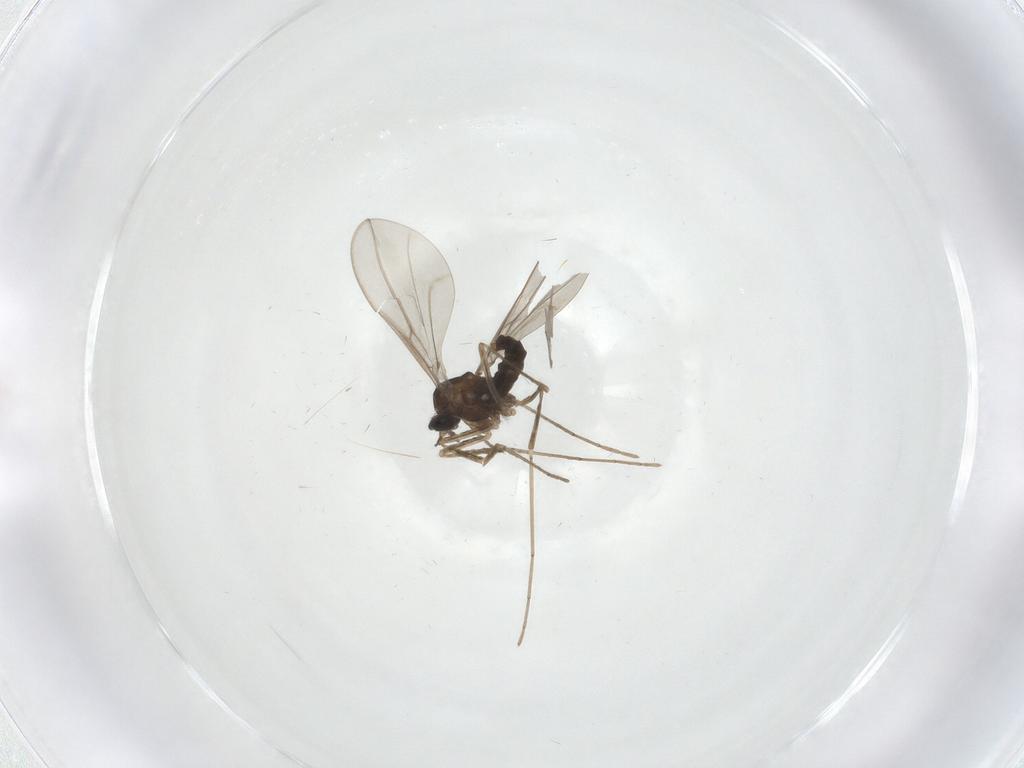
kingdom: Animalia
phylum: Arthropoda
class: Insecta
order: Diptera
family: Cecidomyiidae
